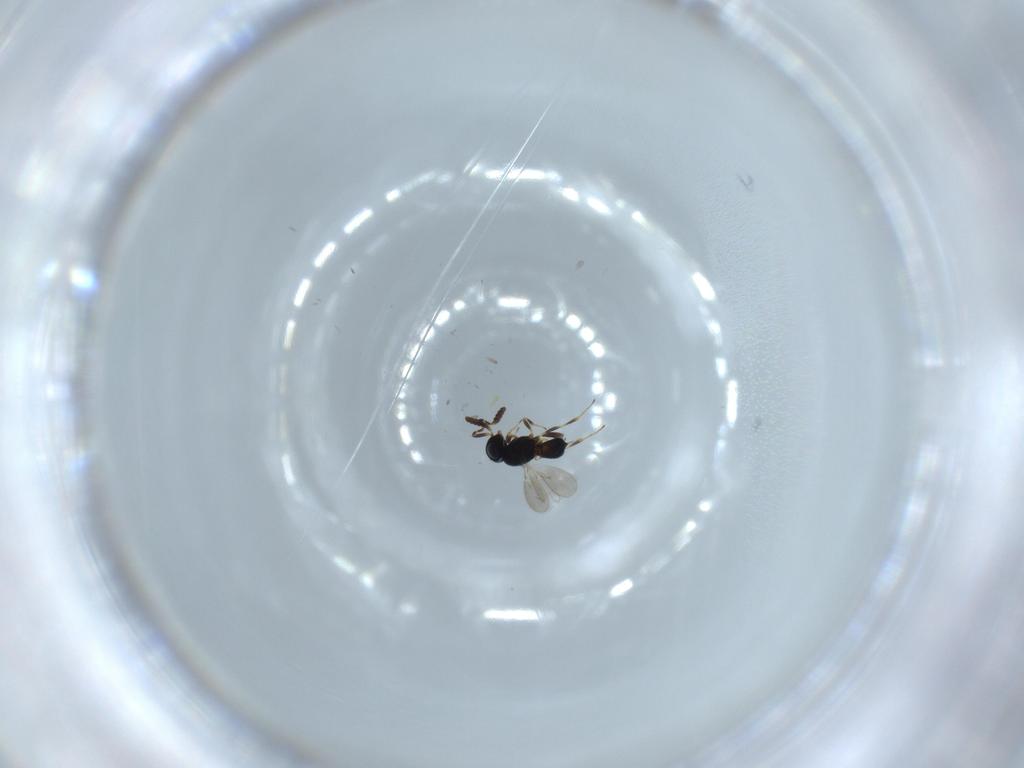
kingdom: Animalia
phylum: Arthropoda
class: Insecta
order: Hymenoptera
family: Scelionidae
